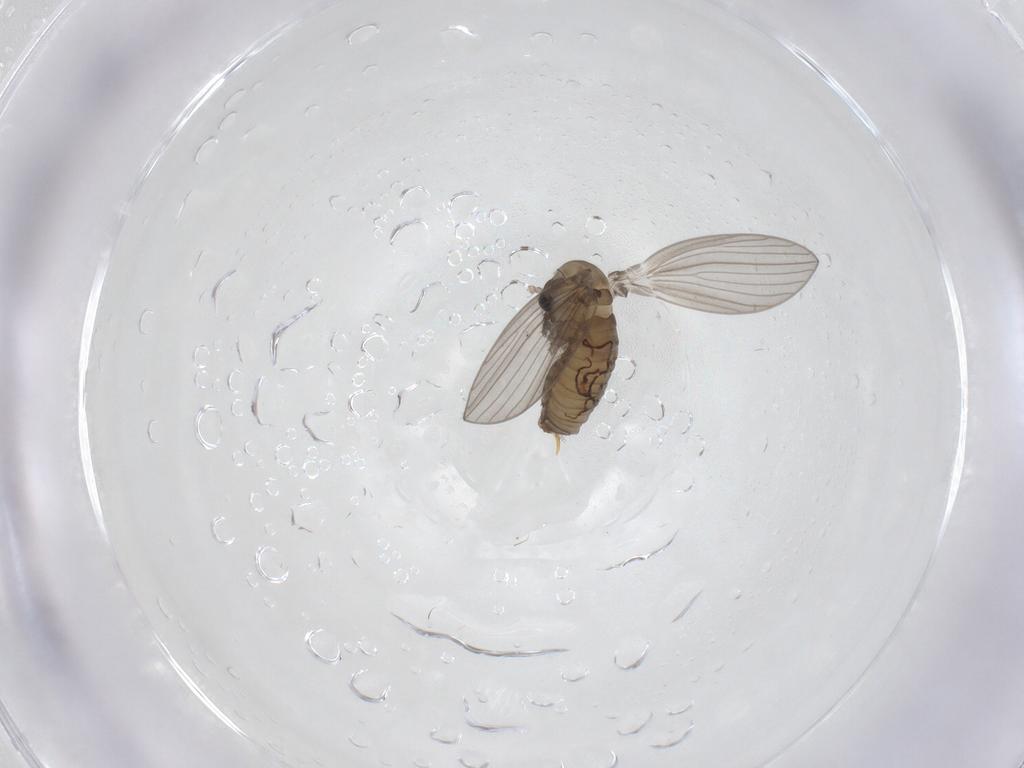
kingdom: Animalia
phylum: Arthropoda
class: Insecta
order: Diptera
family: Psychodidae
